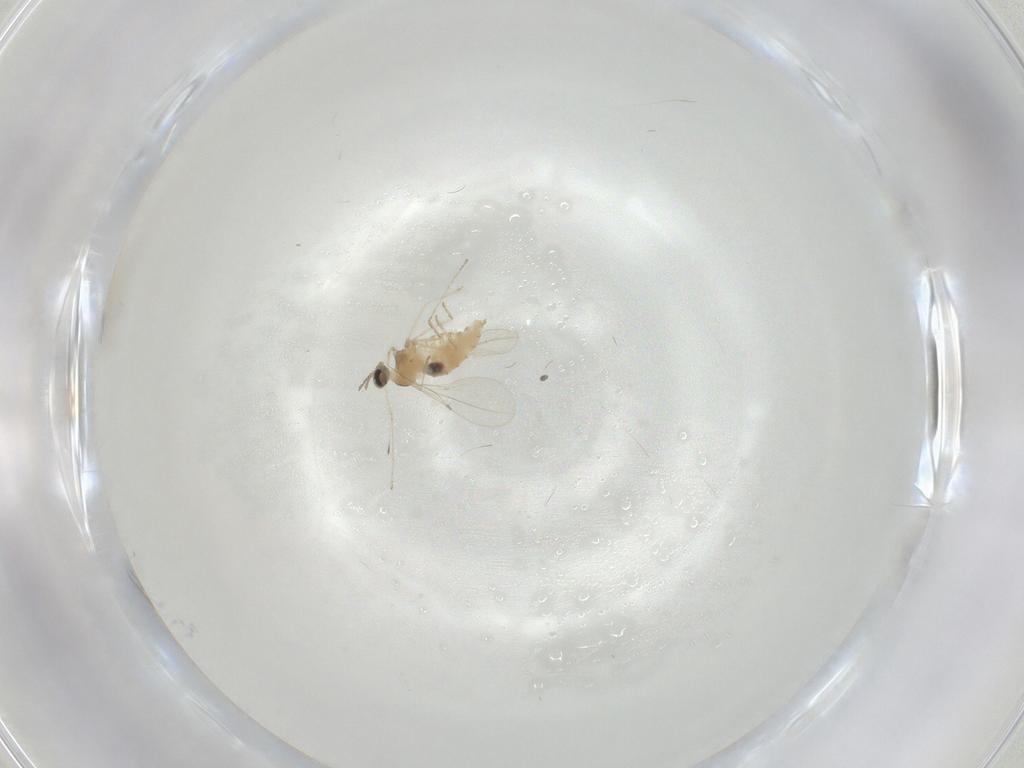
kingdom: Animalia
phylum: Arthropoda
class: Insecta
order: Diptera
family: Cecidomyiidae
